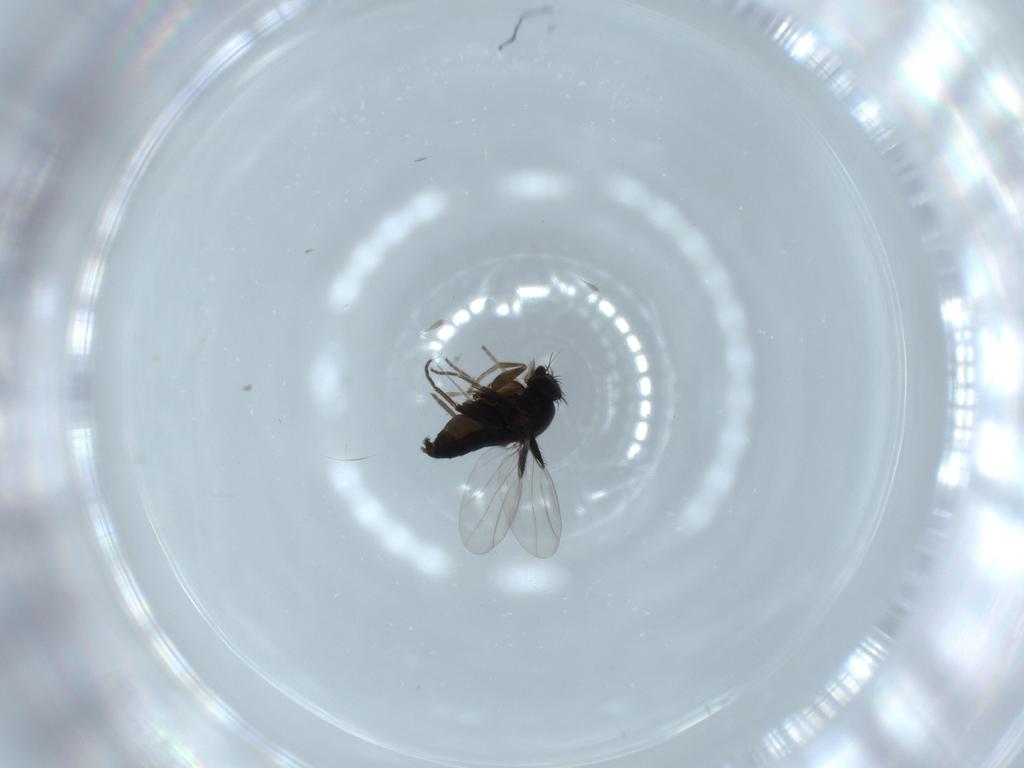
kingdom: Animalia
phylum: Arthropoda
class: Insecta
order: Diptera
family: Phoridae
